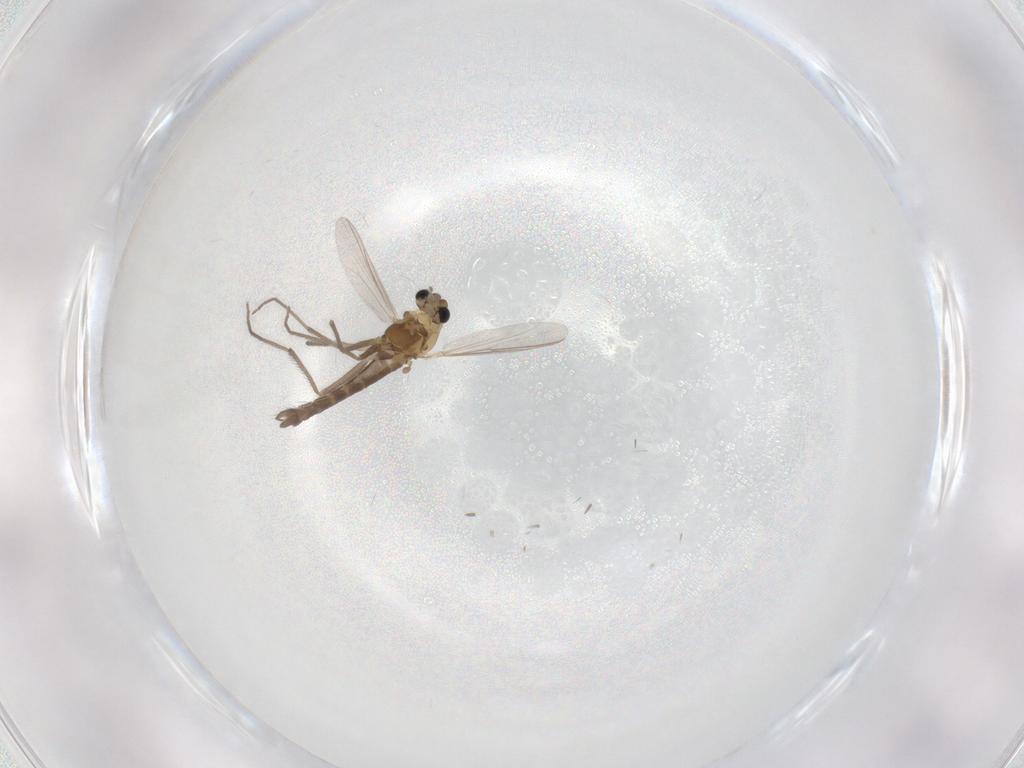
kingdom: Animalia
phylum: Arthropoda
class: Insecta
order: Diptera
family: Chironomidae
